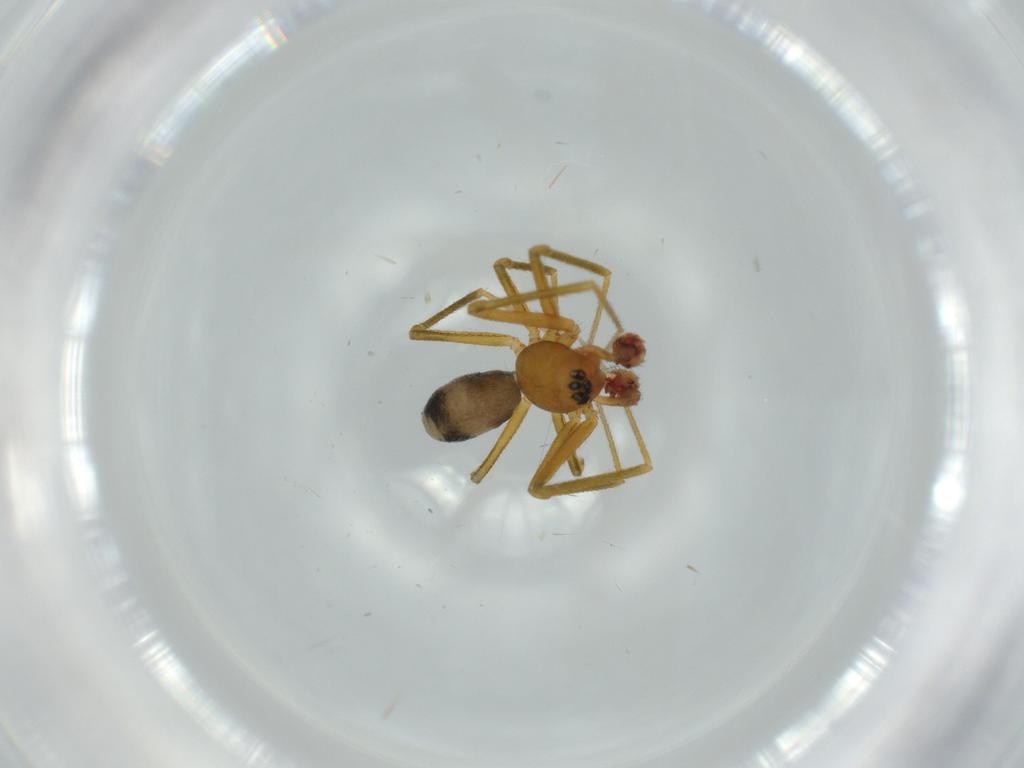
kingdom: Animalia
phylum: Arthropoda
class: Arachnida
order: Araneae
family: Linyphiidae
